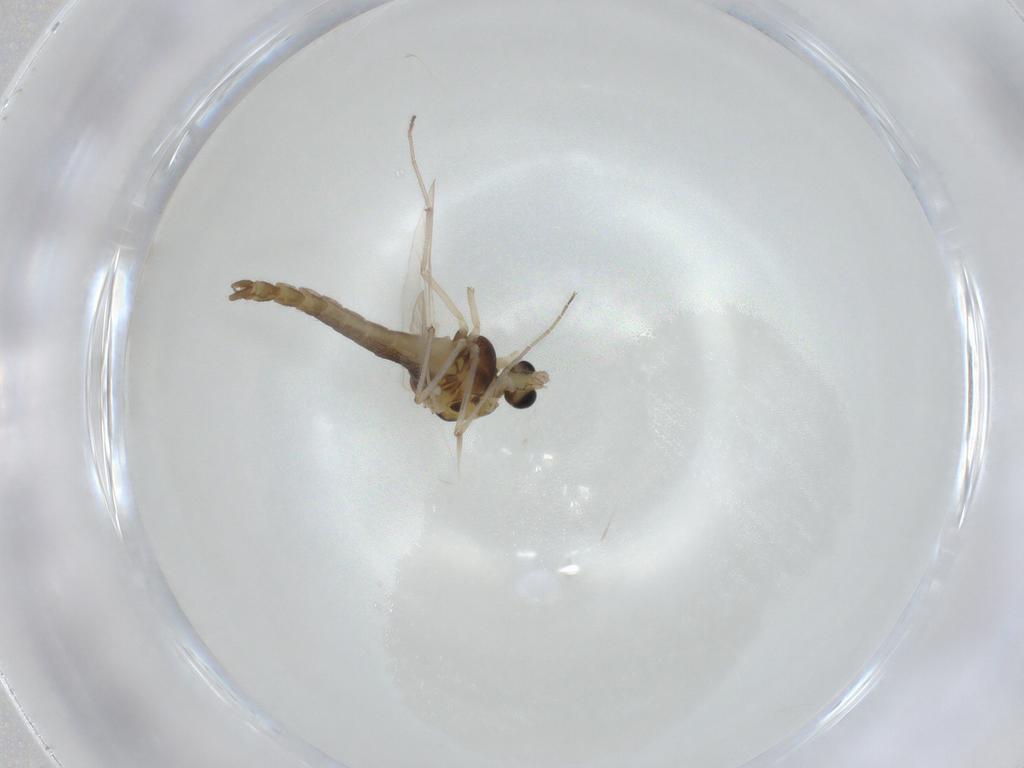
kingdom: Animalia
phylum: Arthropoda
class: Insecta
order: Diptera
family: Chironomidae
